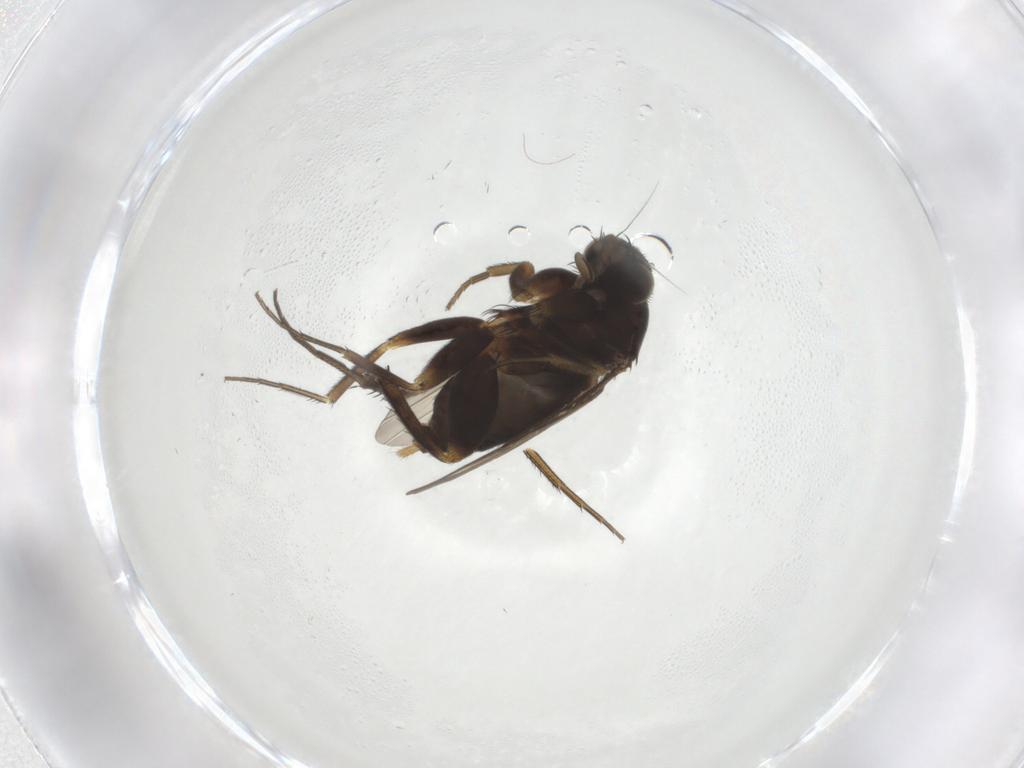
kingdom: Animalia
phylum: Arthropoda
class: Insecta
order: Diptera
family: Phoridae
